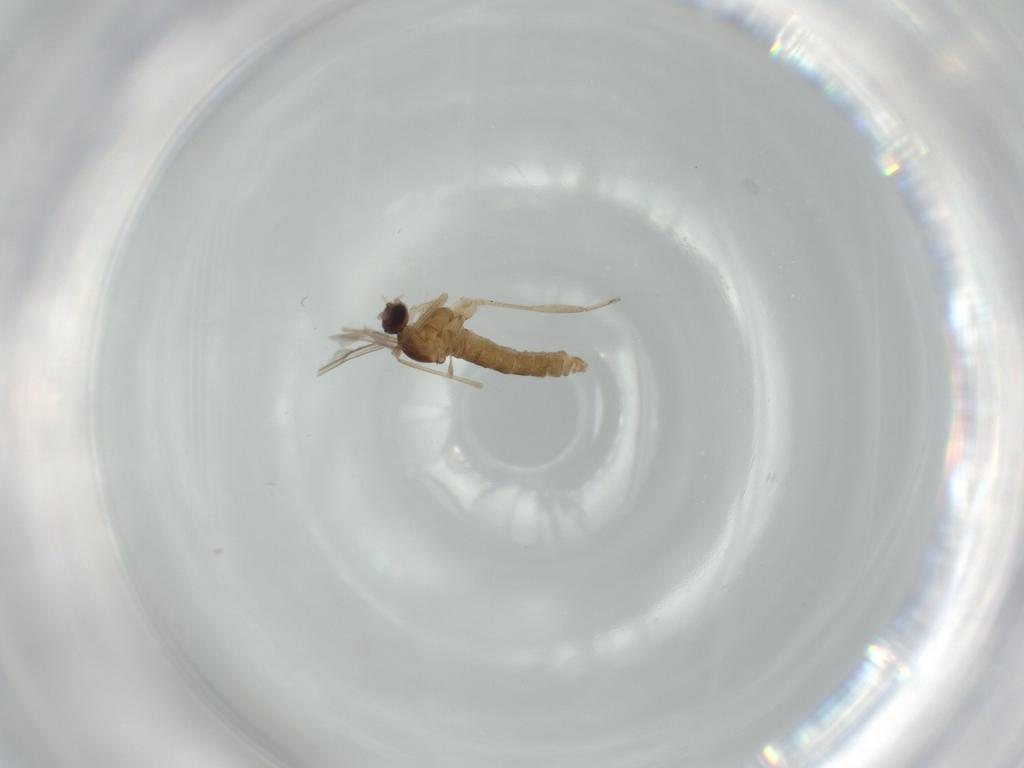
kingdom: Animalia
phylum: Arthropoda
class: Insecta
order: Diptera
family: Cecidomyiidae
